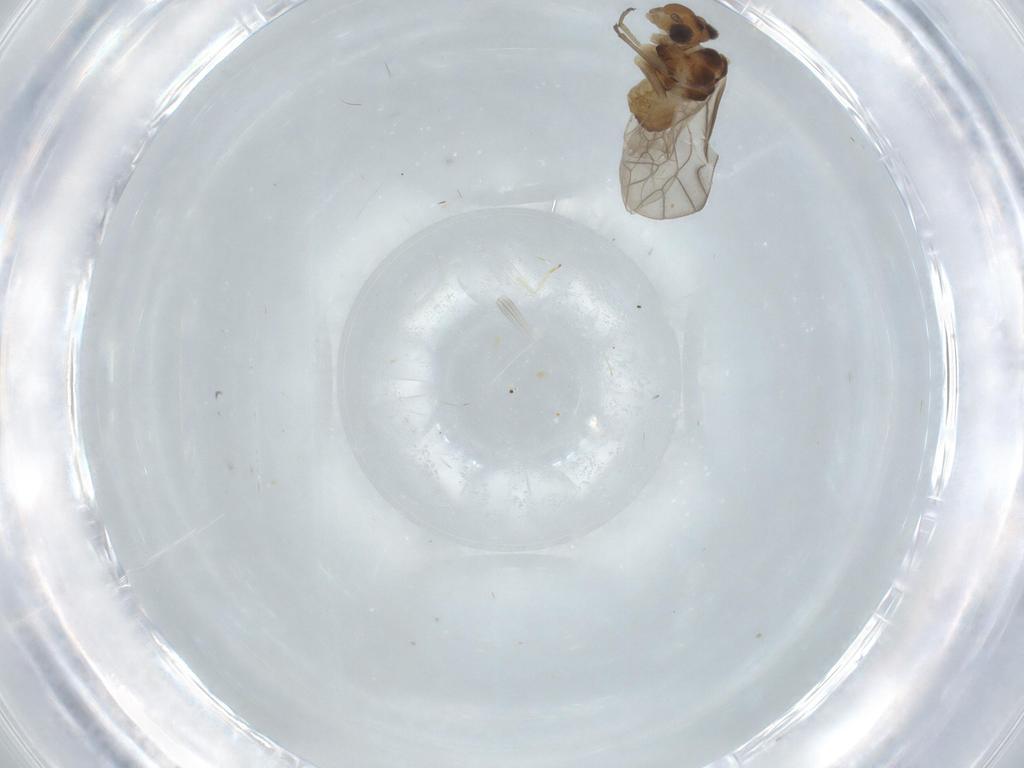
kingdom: Animalia
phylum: Arthropoda
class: Insecta
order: Psocodea
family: Philotarsidae
